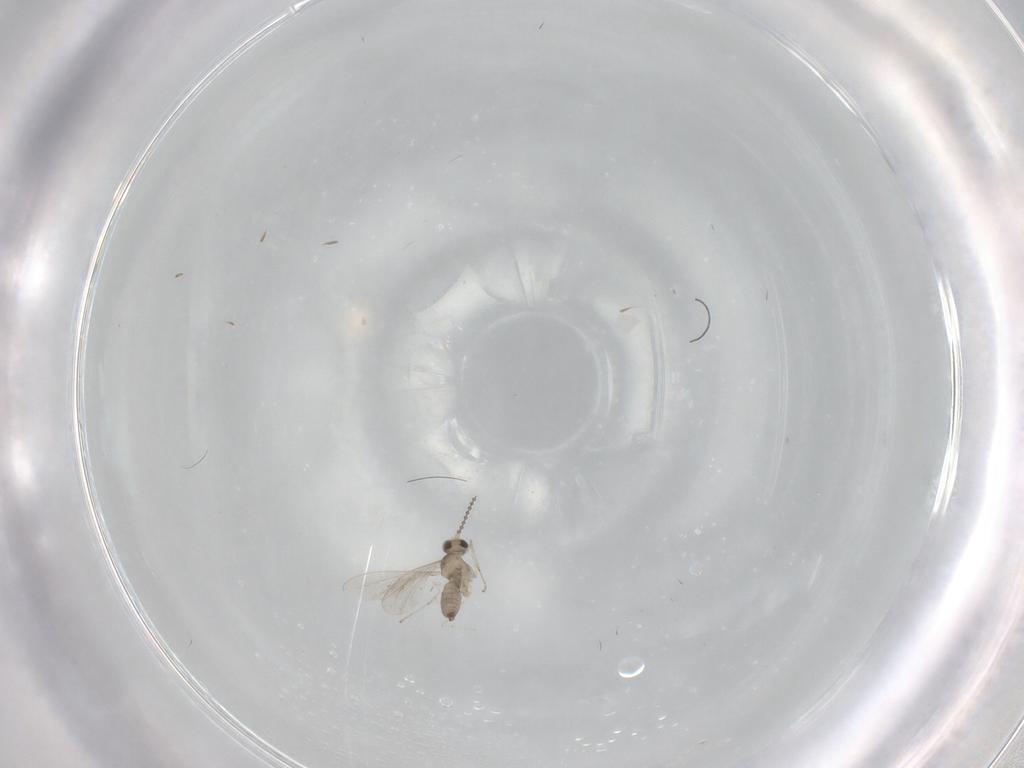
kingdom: Animalia
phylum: Arthropoda
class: Insecta
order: Diptera
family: Cecidomyiidae
